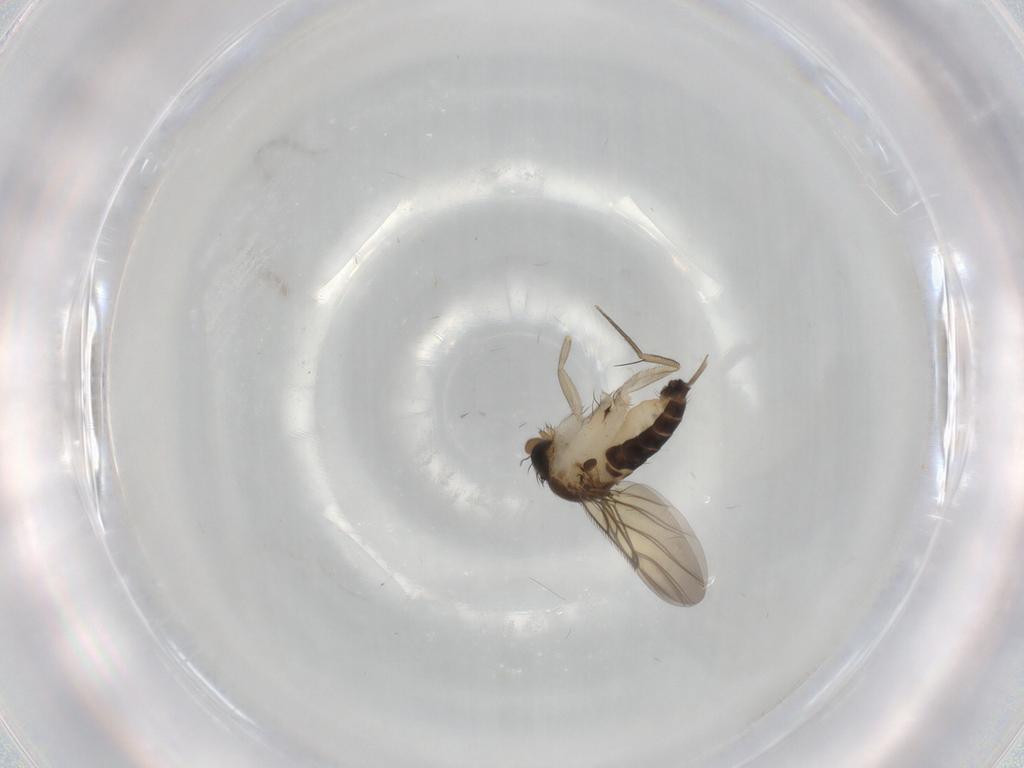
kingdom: Animalia
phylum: Arthropoda
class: Insecta
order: Diptera
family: Phoridae
